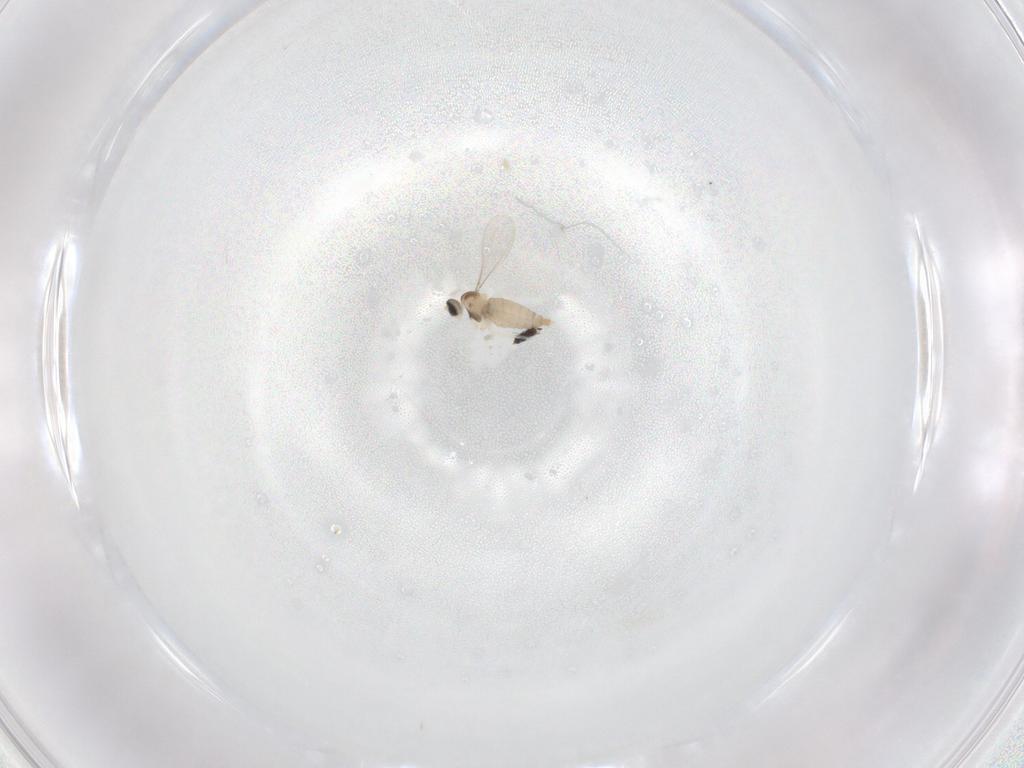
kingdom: Animalia
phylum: Arthropoda
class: Insecta
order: Diptera
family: Cecidomyiidae
